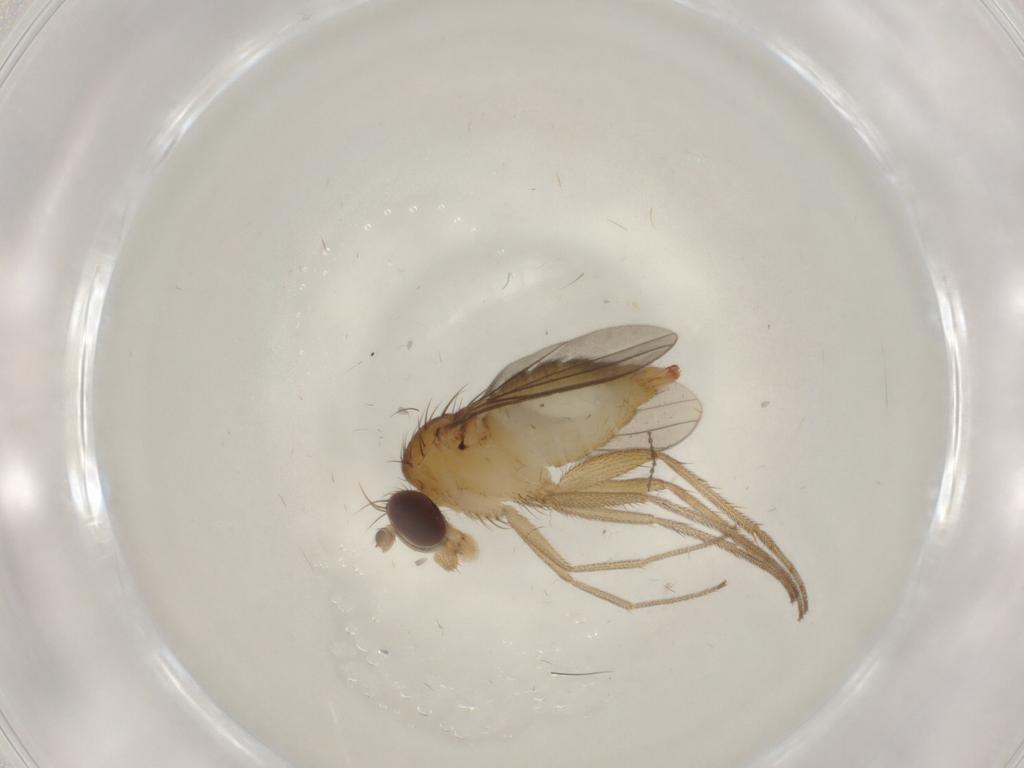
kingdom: Animalia
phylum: Arthropoda
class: Insecta
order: Diptera
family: Dolichopodidae
